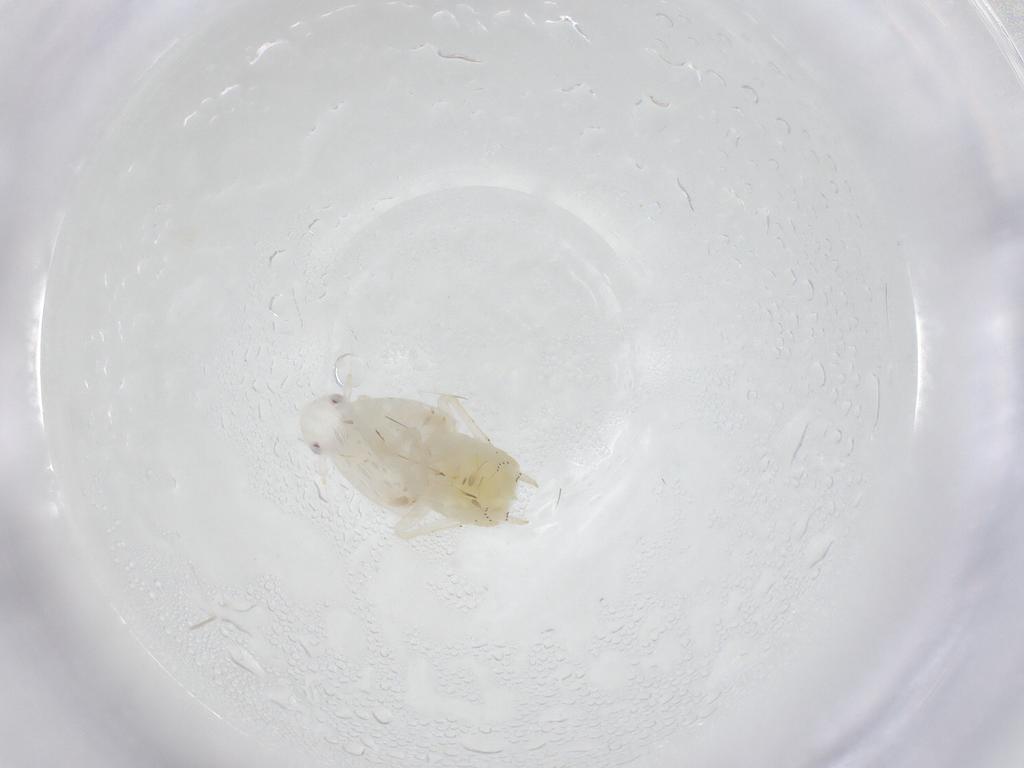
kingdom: Animalia
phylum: Arthropoda
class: Insecta
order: Hemiptera
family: Flatidae
